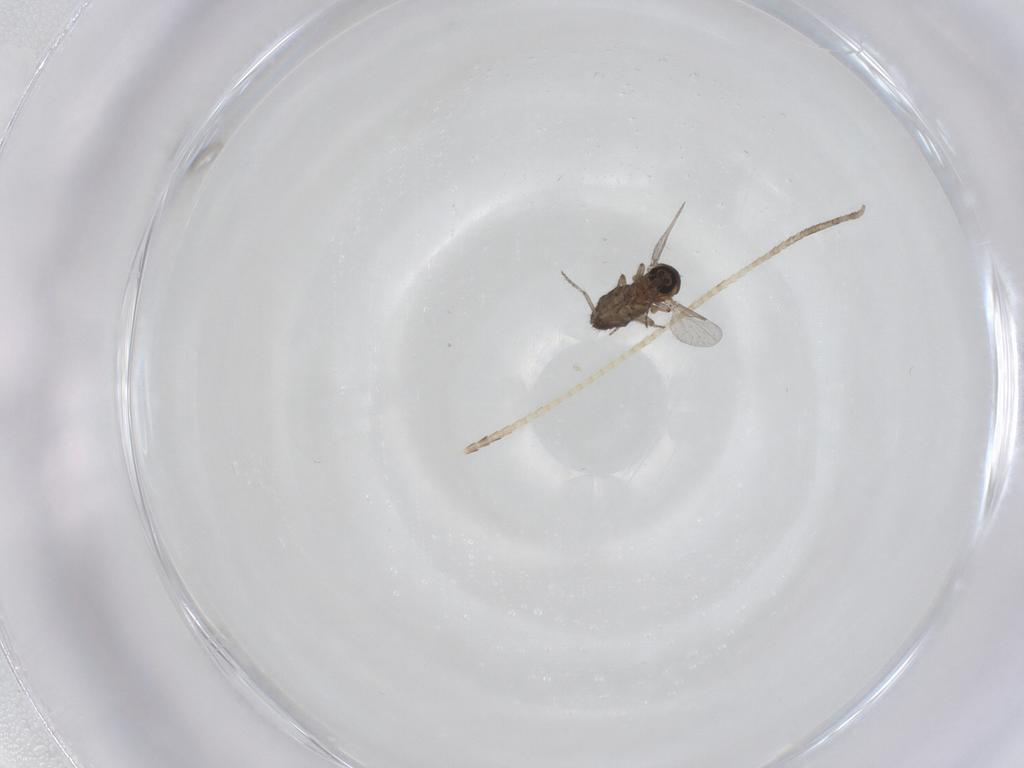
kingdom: Animalia
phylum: Arthropoda
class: Insecta
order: Diptera
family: Ceratopogonidae
